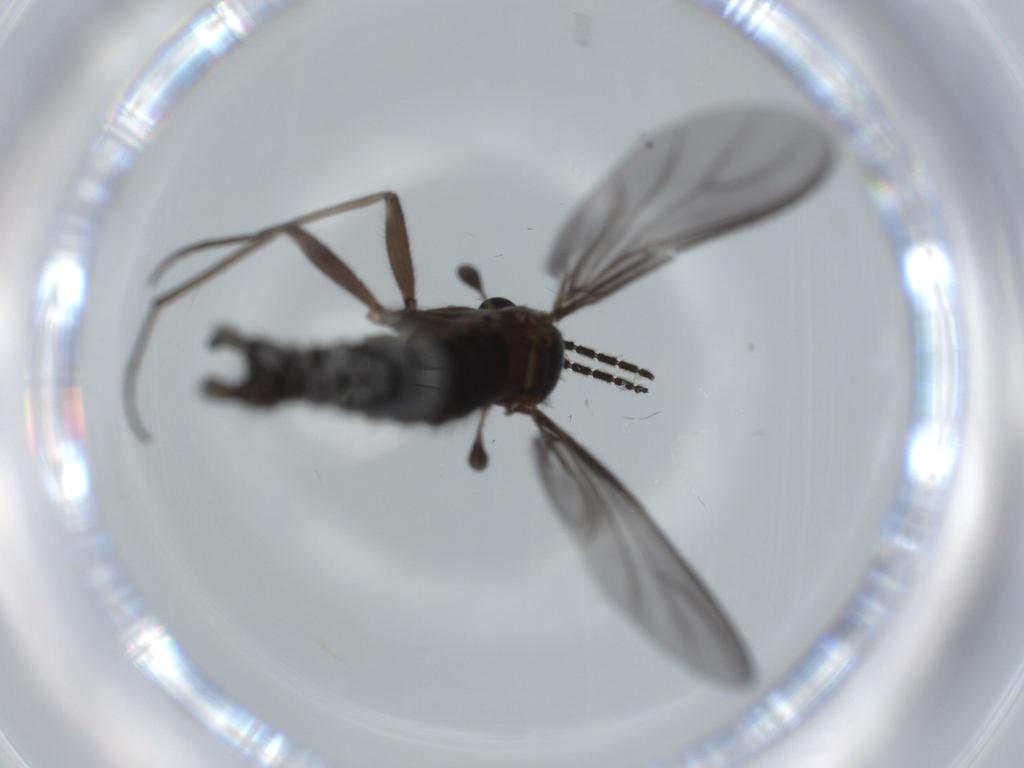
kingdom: Animalia
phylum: Arthropoda
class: Insecta
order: Diptera
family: Sciaridae
